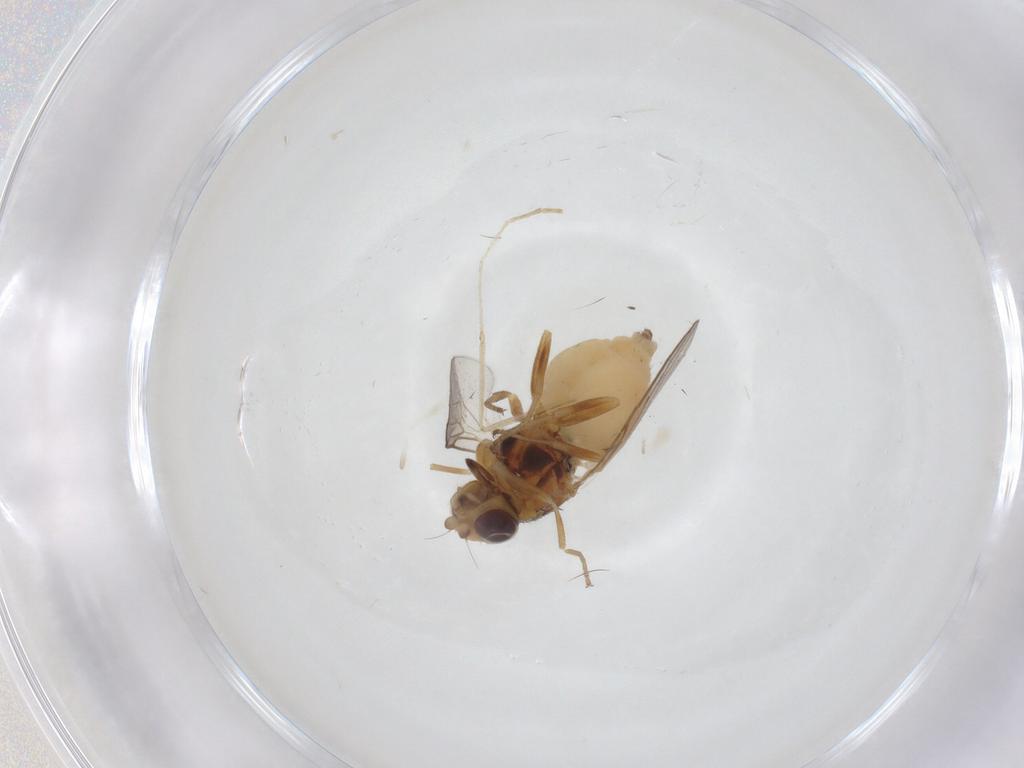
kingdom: Animalia
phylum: Arthropoda
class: Insecta
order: Diptera
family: Chloropidae
